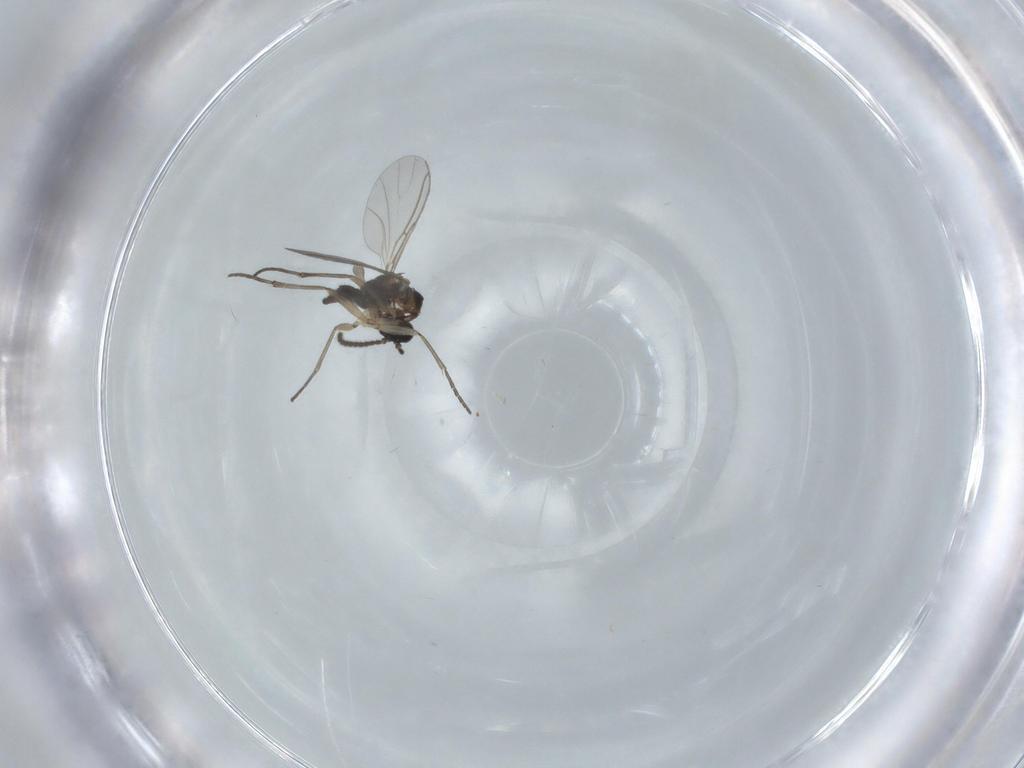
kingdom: Animalia
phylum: Arthropoda
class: Insecta
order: Diptera
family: Sciaridae
